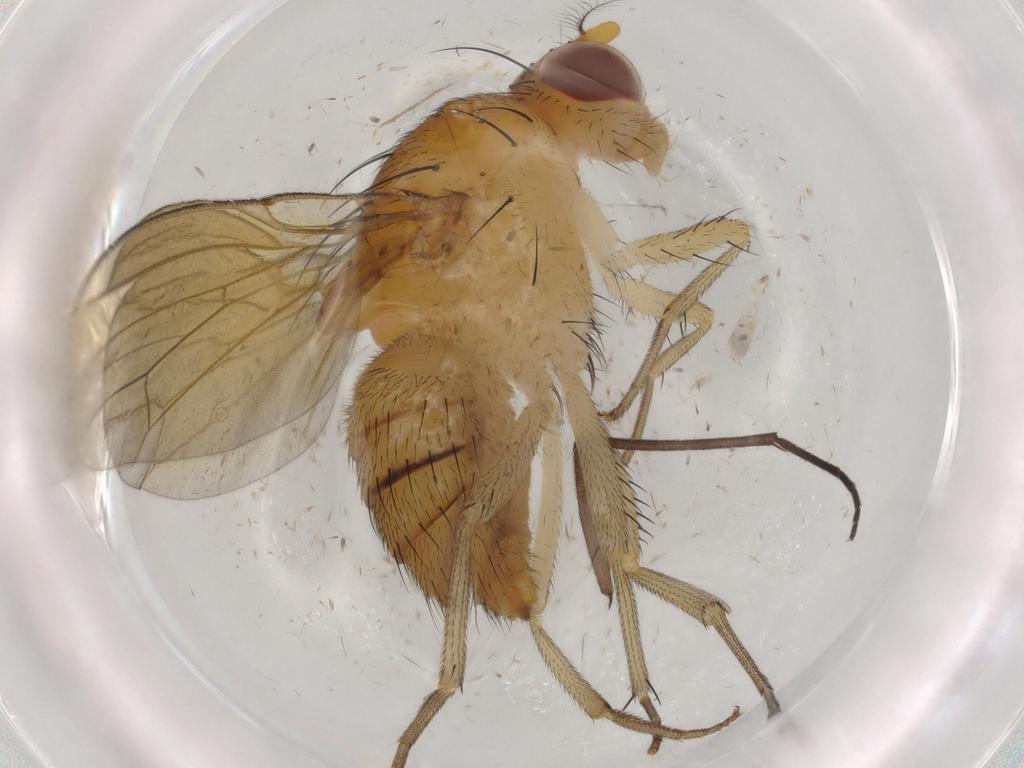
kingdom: Animalia
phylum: Arthropoda
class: Insecta
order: Diptera
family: Sciaridae
